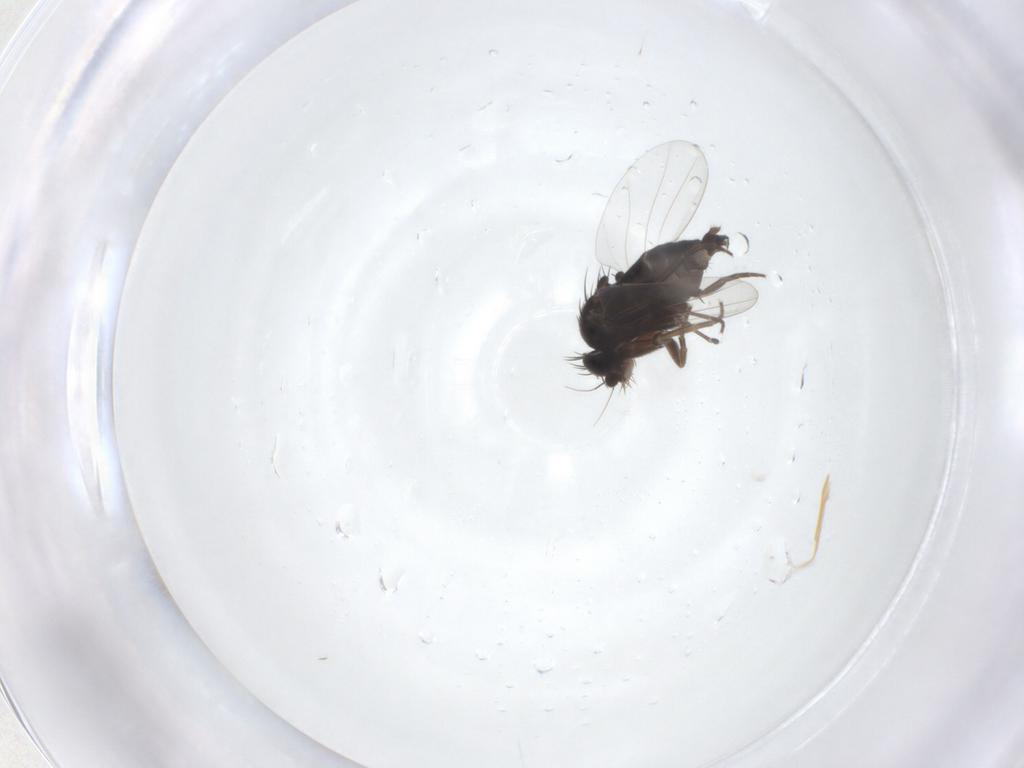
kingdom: Animalia
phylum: Arthropoda
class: Insecta
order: Diptera
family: Phoridae
